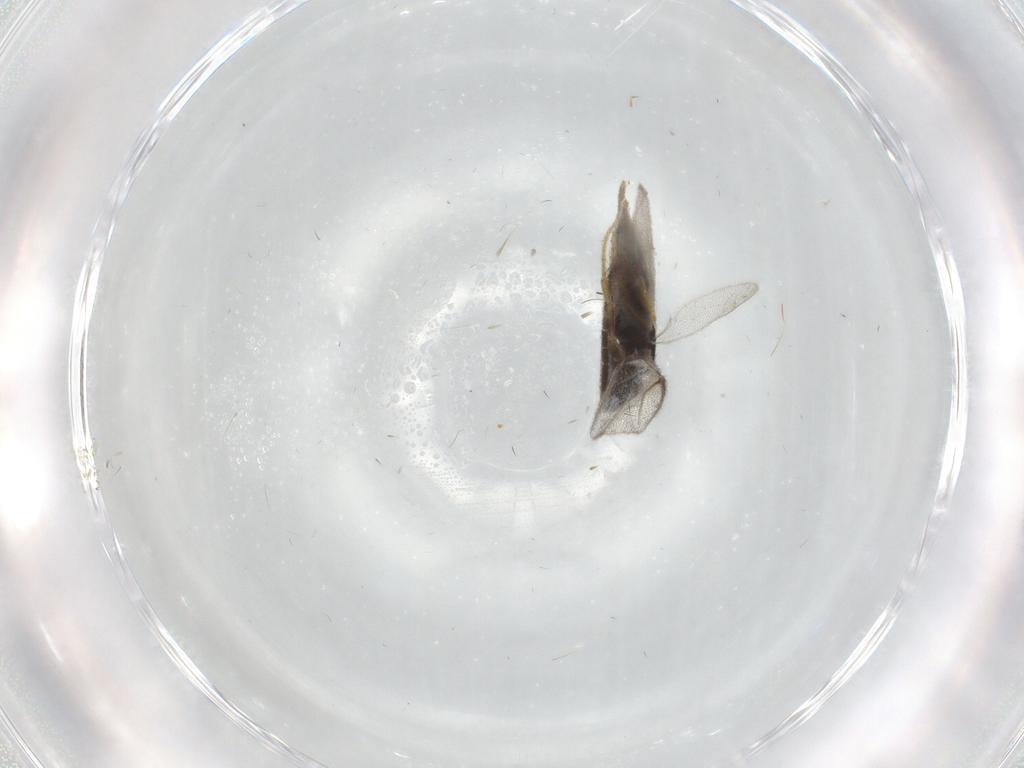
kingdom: Animalia
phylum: Arthropoda
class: Insecta
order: Hymenoptera
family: Dryinidae
